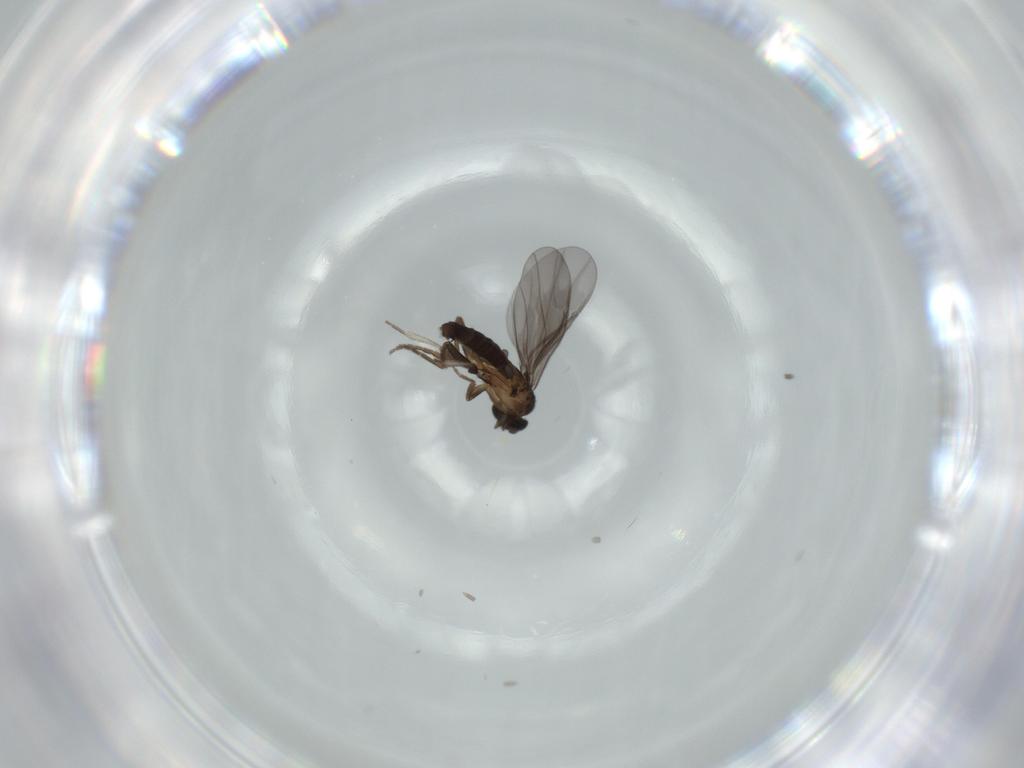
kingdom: Animalia
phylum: Arthropoda
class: Insecta
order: Diptera
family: Phoridae
